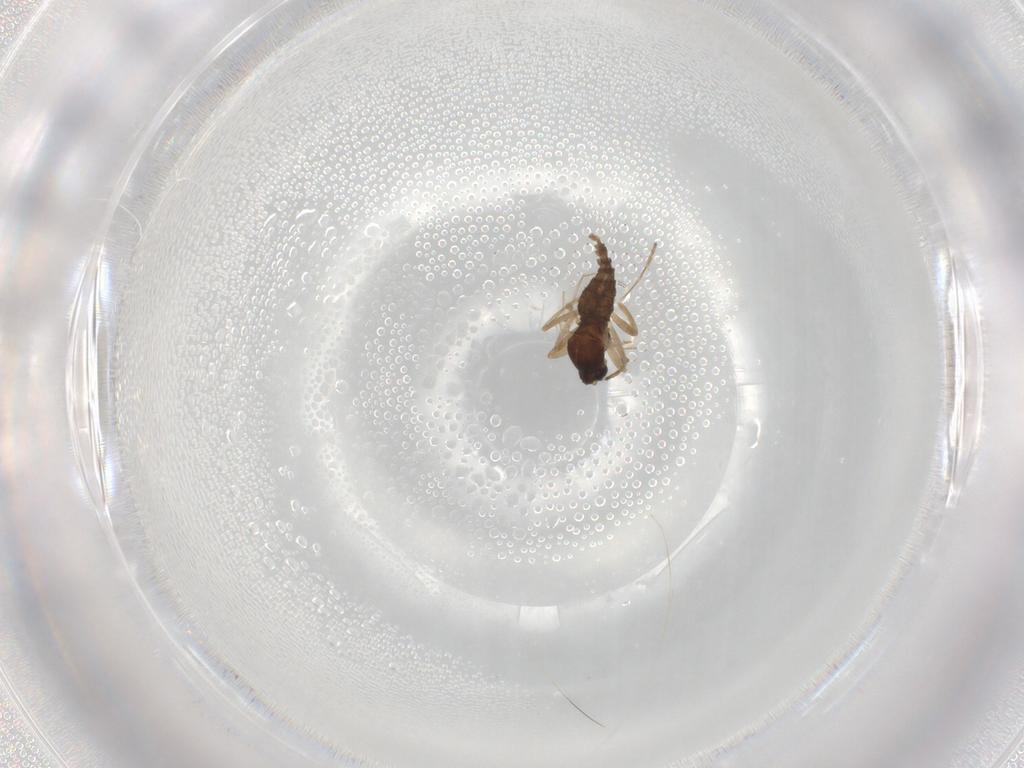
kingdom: Animalia
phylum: Arthropoda
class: Insecta
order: Diptera
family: Cecidomyiidae
